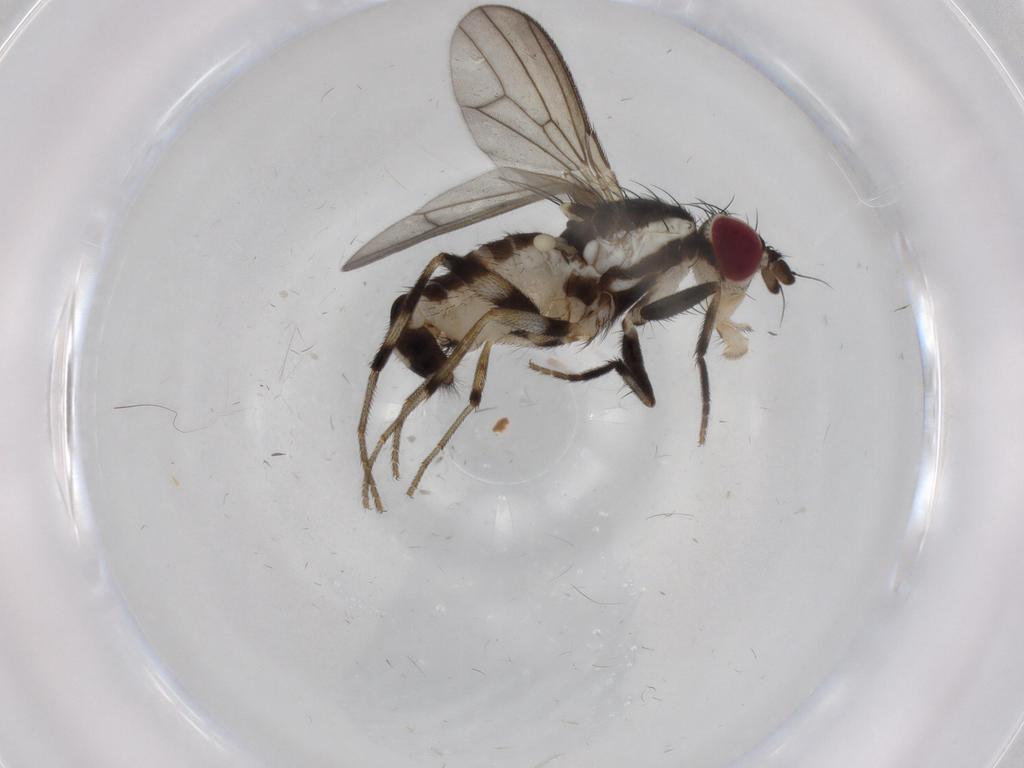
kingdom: Animalia
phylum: Arthropoda
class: Insecta
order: Diptera
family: Pseudopomyzidae
